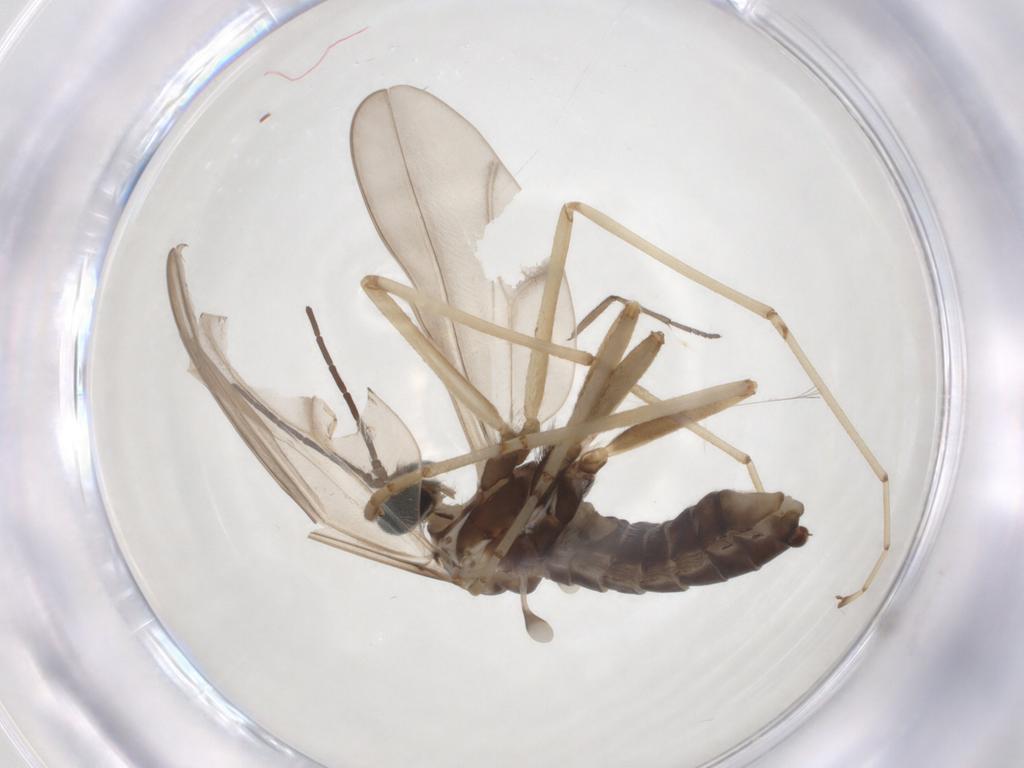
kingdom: Animalia
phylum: Arthropoda
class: Insecta
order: Diptera
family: Cecidomyiidae
